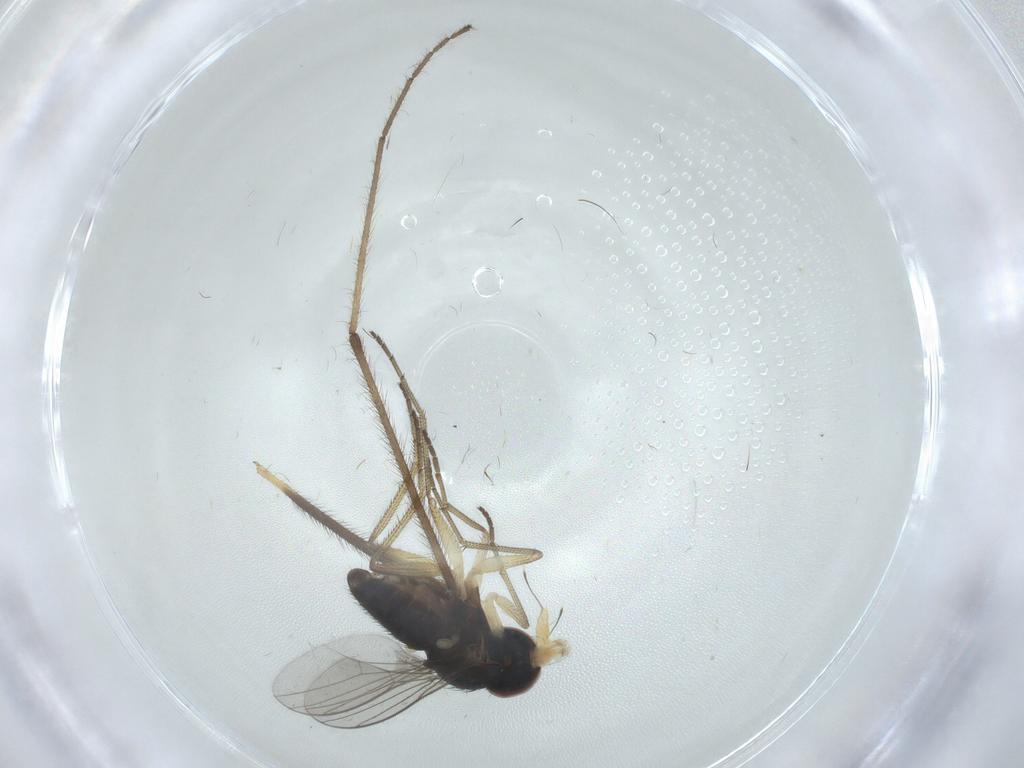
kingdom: Animalia
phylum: Arthropoda
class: Insecta
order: Diptera
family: Dolichopodidae
